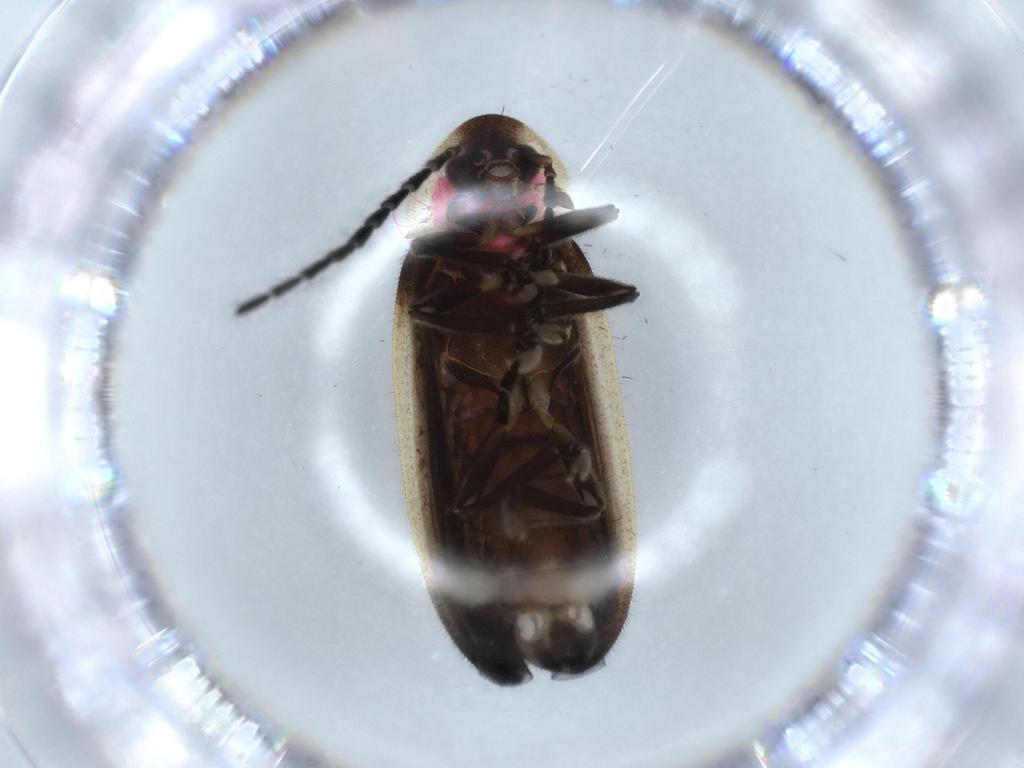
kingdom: Animalia
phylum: Arthropoda
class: Insecta
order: Coleoptera
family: Lampyridae
